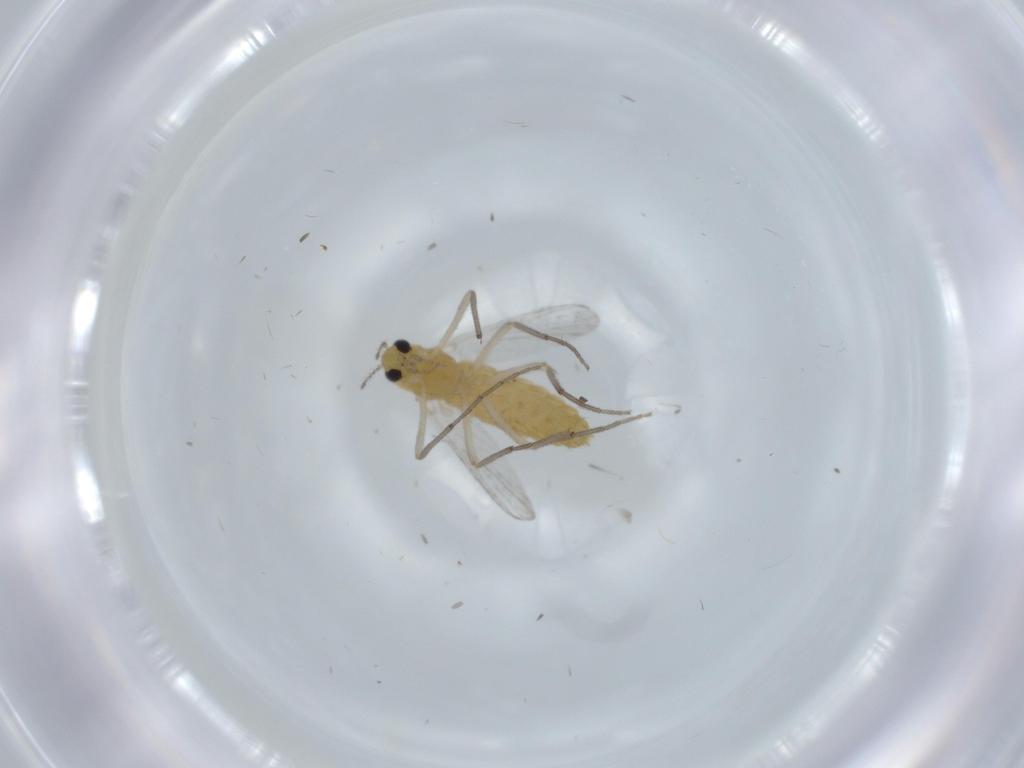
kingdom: Animalia
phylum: Arthropoda
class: Insecta
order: Diptera
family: Chironomidae
